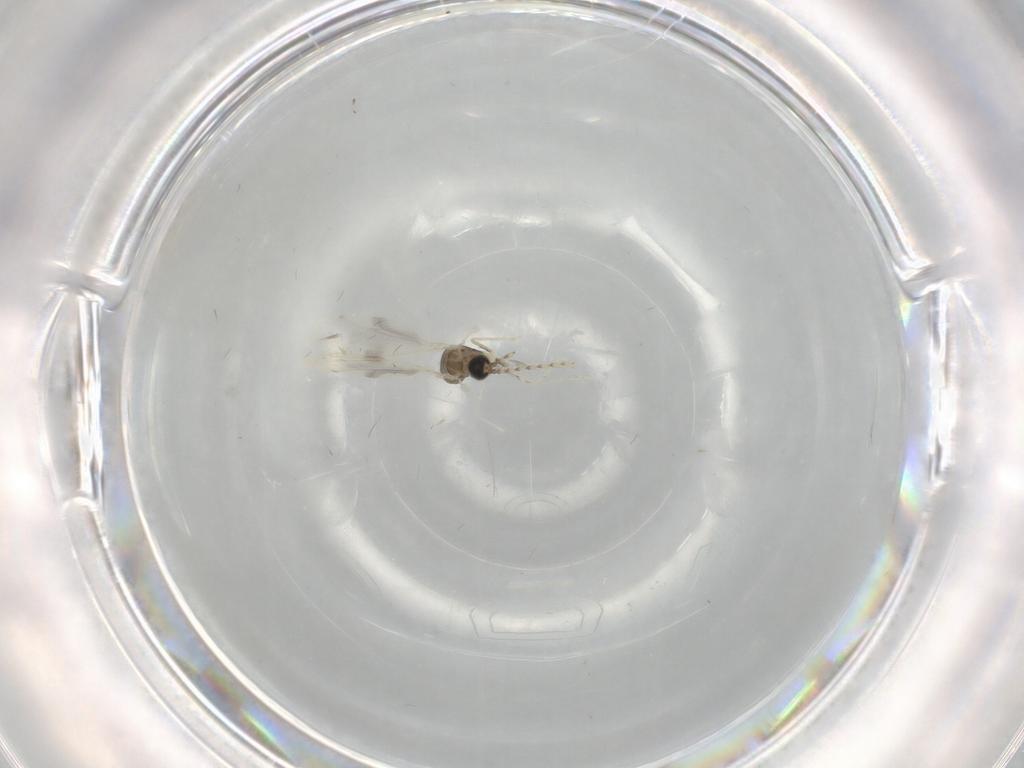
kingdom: Animalia
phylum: Arthropoda
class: Insecta
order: Diptera
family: Cecidomyiidae
